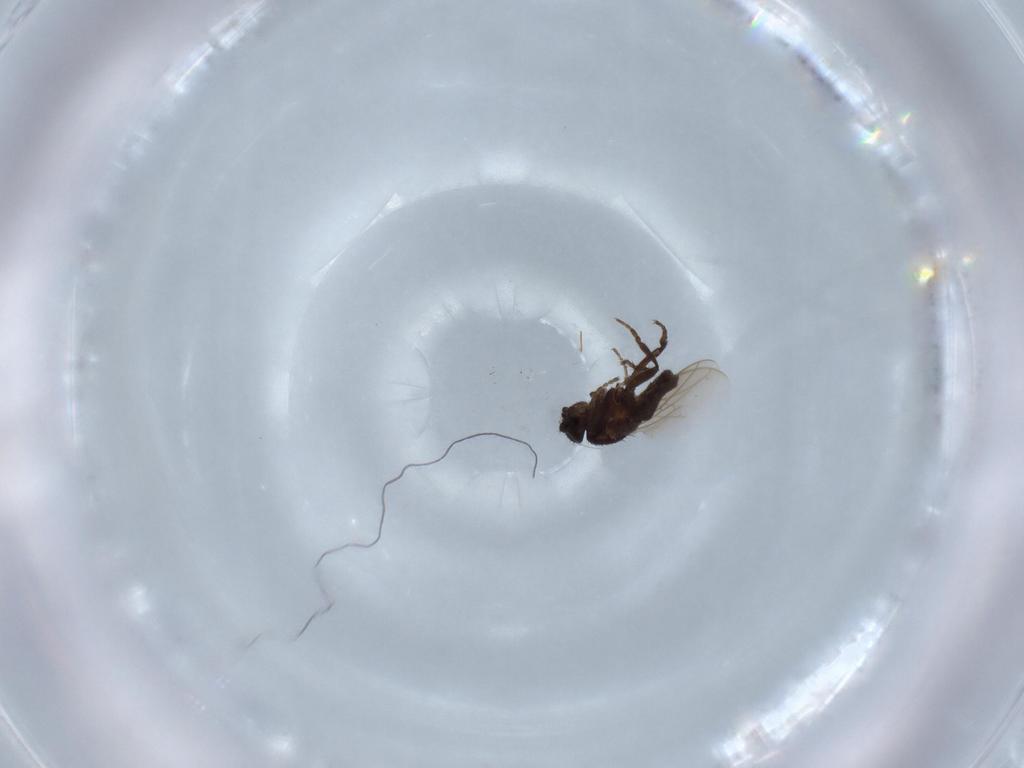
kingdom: Animalia
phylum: Arthropoda
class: Insecta
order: Diptera
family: Sphaeroceridae
